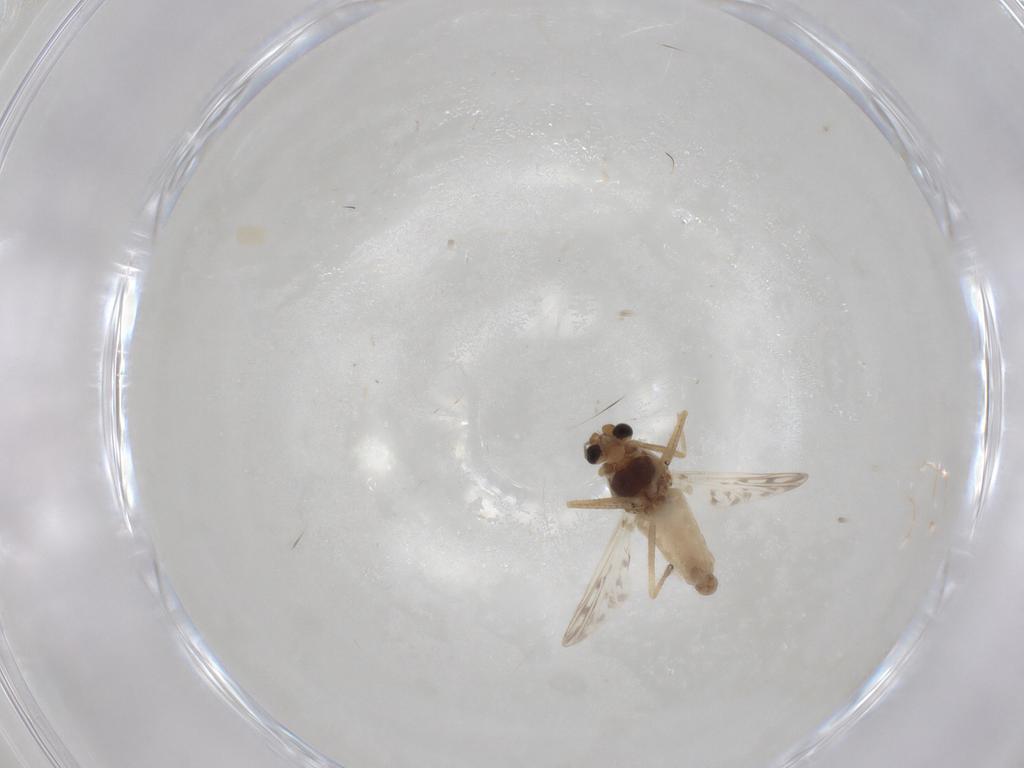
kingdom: Animalia
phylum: Arthropoda
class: Insecta
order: Diptera
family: Chironomidae
